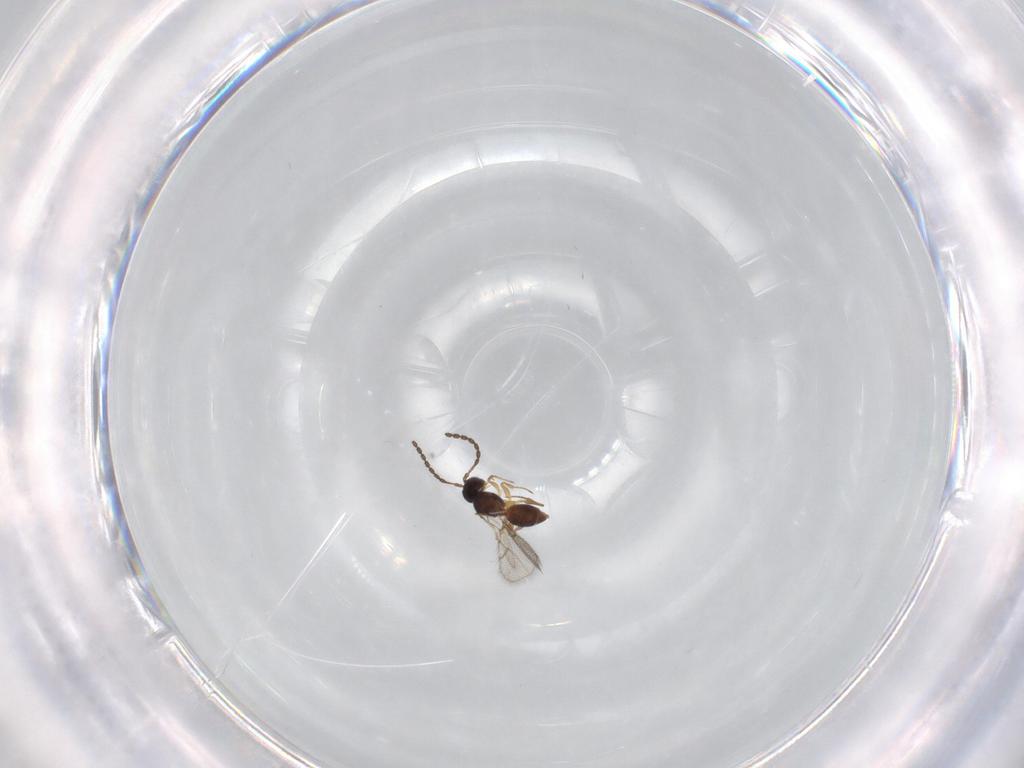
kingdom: Animalia
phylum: Arthropoda
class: Insecta
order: Hymenoptera
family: Figitidae
